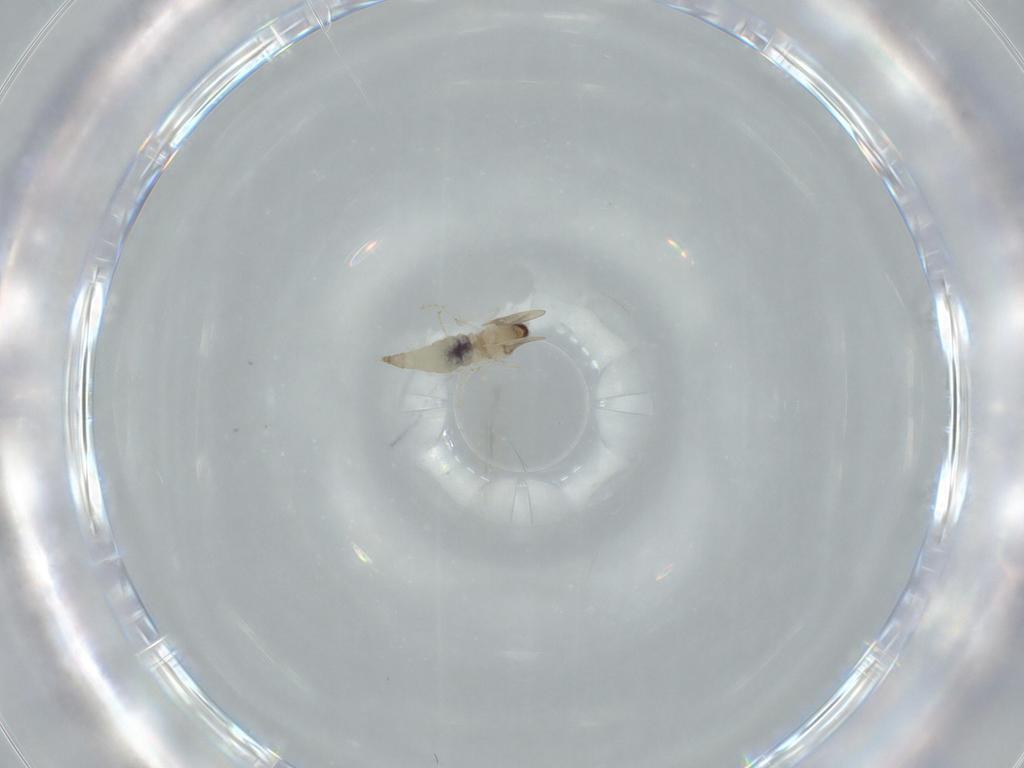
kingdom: Animalia
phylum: Arthropoda
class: Insecta
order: Diptera
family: Cecidomyiidae
